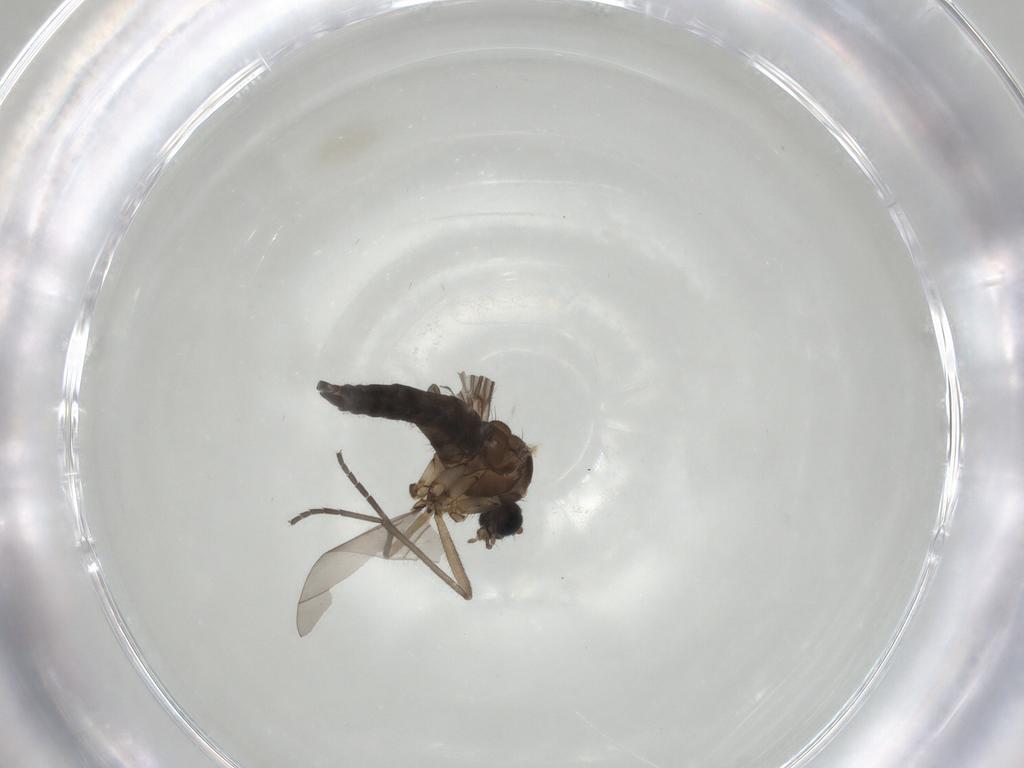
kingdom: Animalia
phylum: Arthropoda
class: Insecta
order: Diptera
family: Sciaridae
